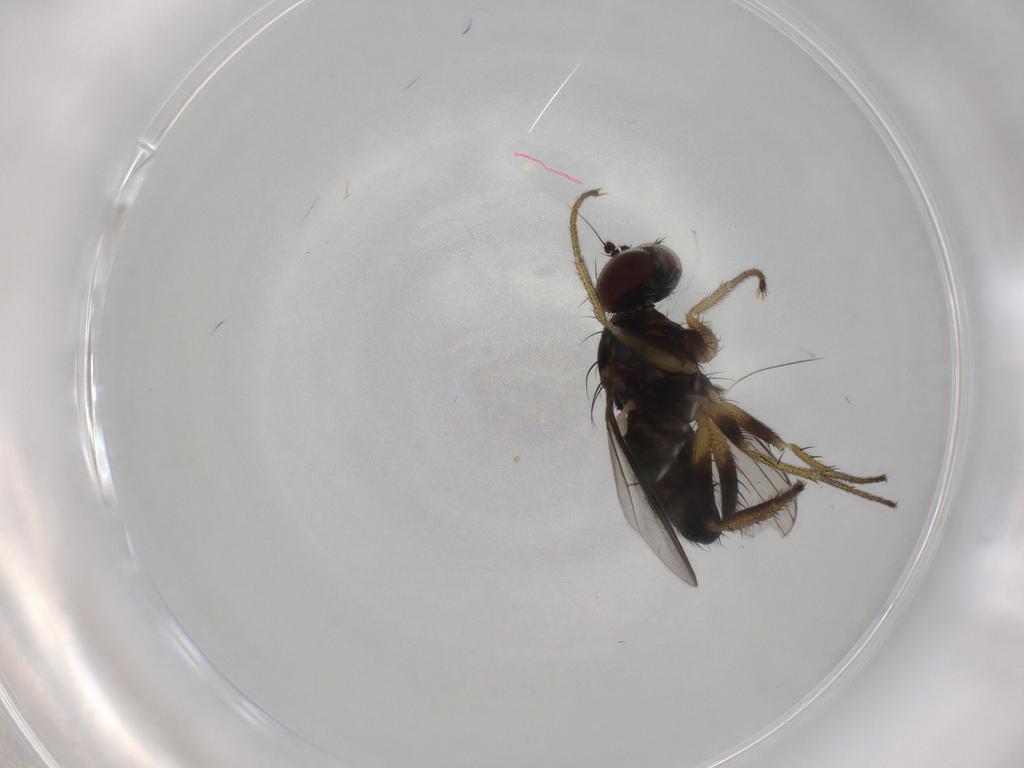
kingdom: Animalia
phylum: Arthropoda
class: Insecta
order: Diptera
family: Dolichopodidae
